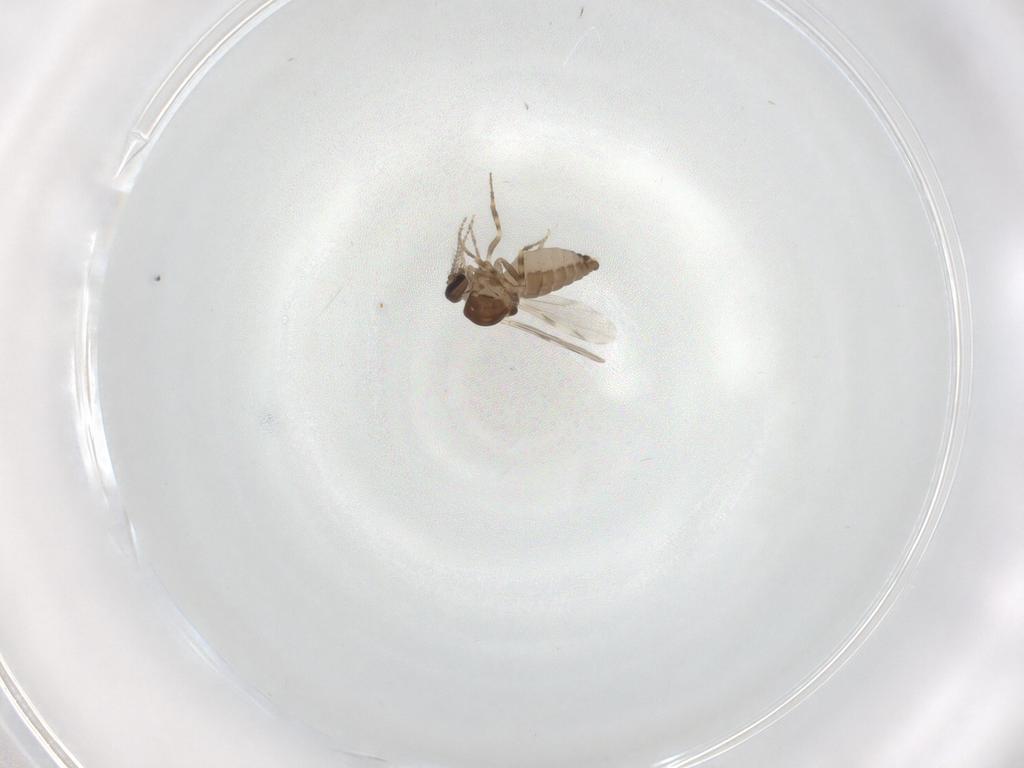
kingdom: Animalia
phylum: Arthropoda
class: Insecta
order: Diptera
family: Ceratopogonidae
